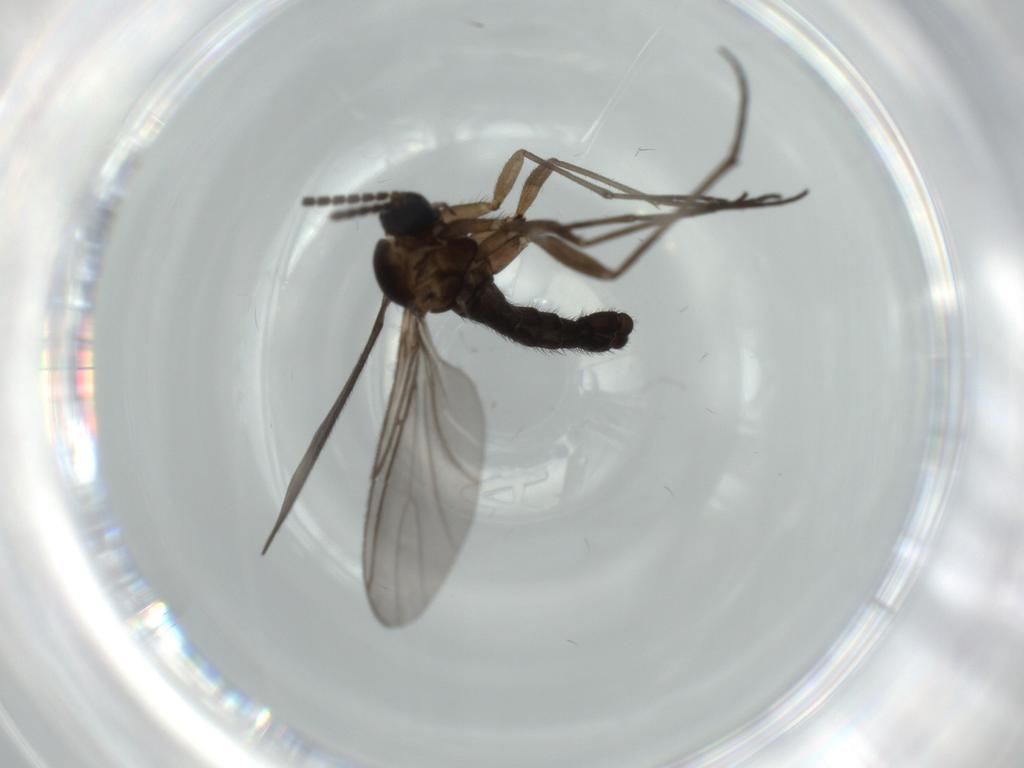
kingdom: Animalia
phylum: Arthropoda
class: Insecta
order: Diptera
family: Sciaridae
